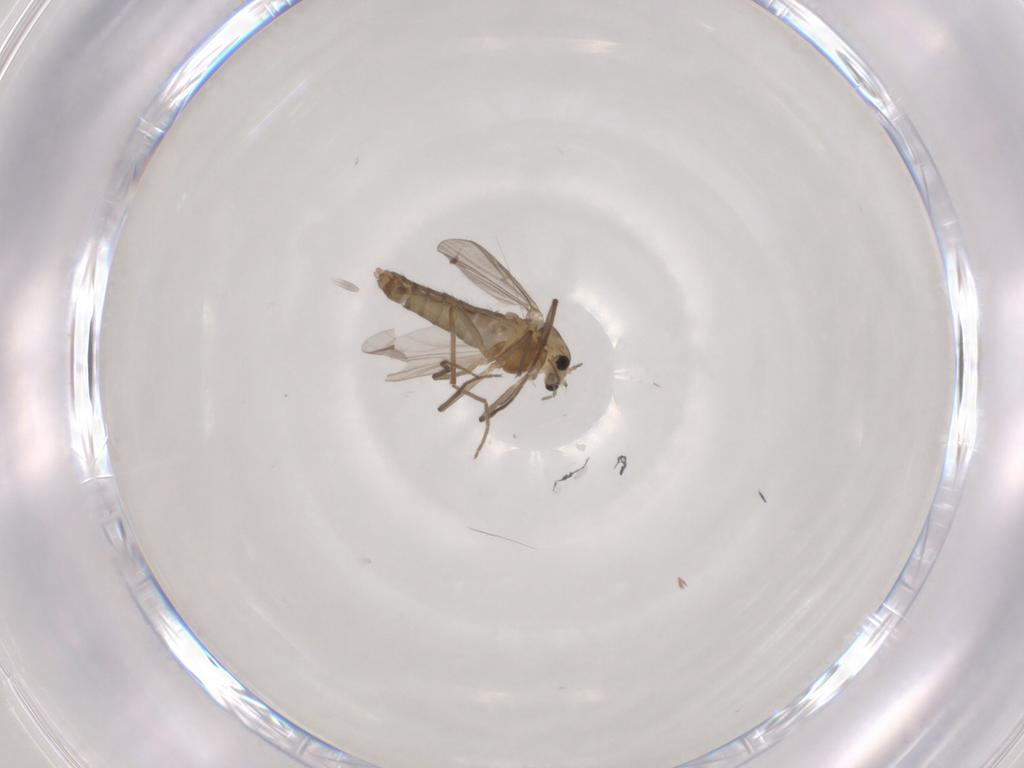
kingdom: Animalia
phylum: Arthropoda
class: Insecta
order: Diptera
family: Chironomidae
